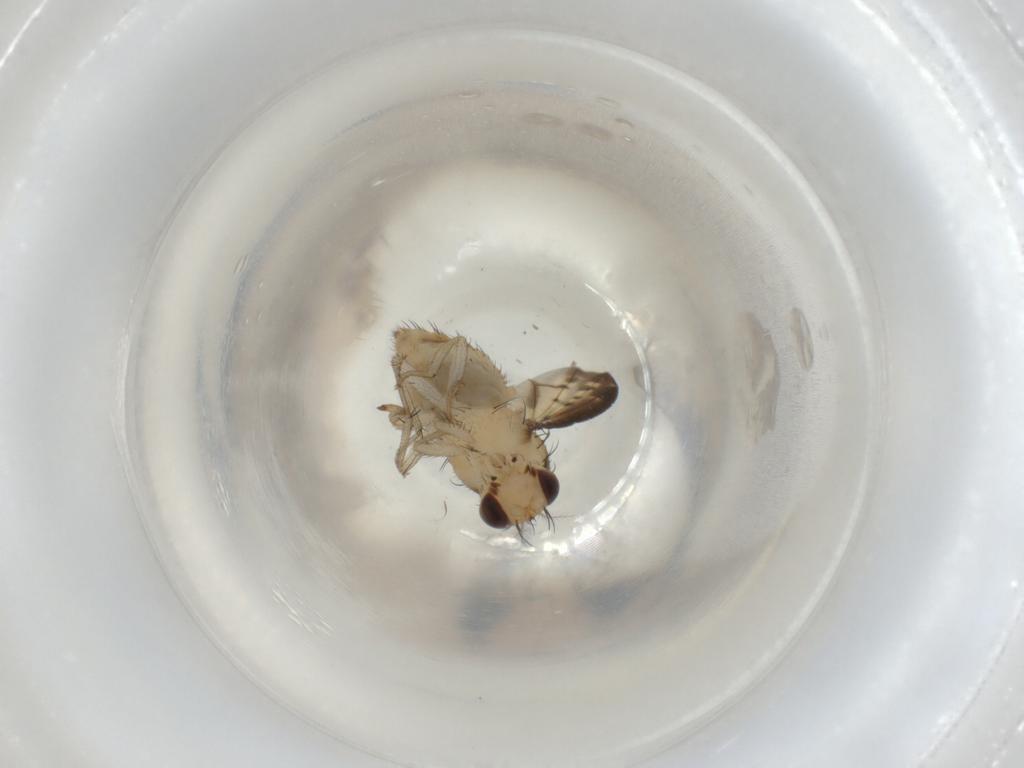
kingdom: Animalia
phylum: Arthropoda
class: Insecta
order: Diptera
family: Lauxaniidae
